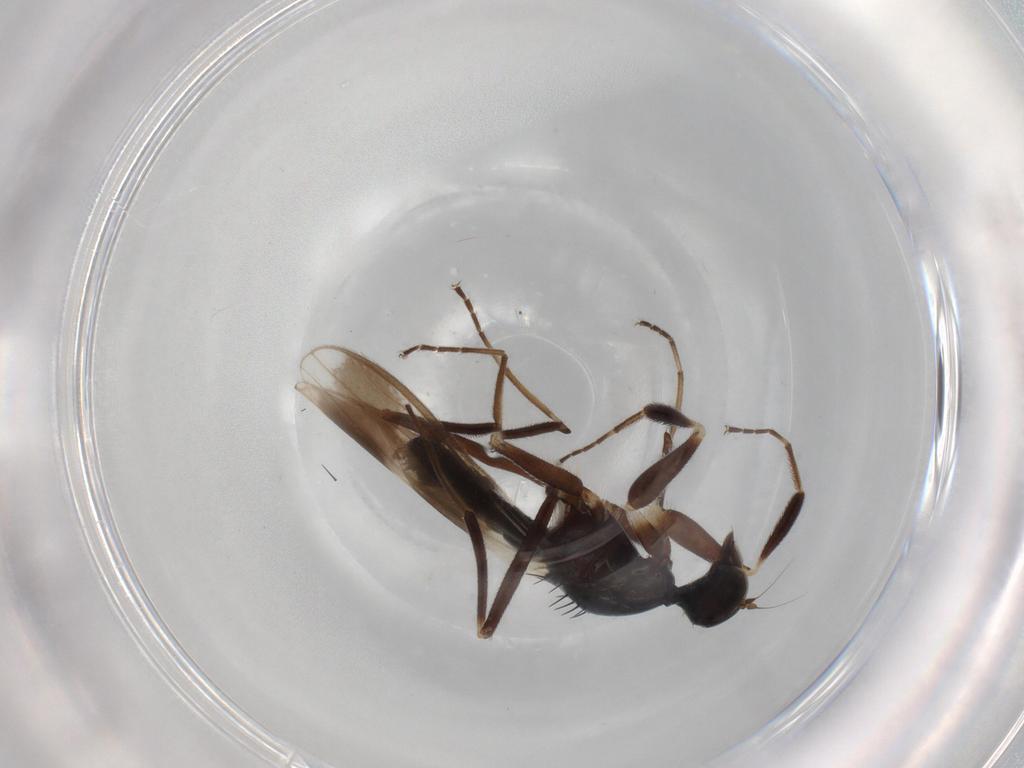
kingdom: Animalia
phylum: Arthropoda
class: Insecta
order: Diptera
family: Hybotidae
